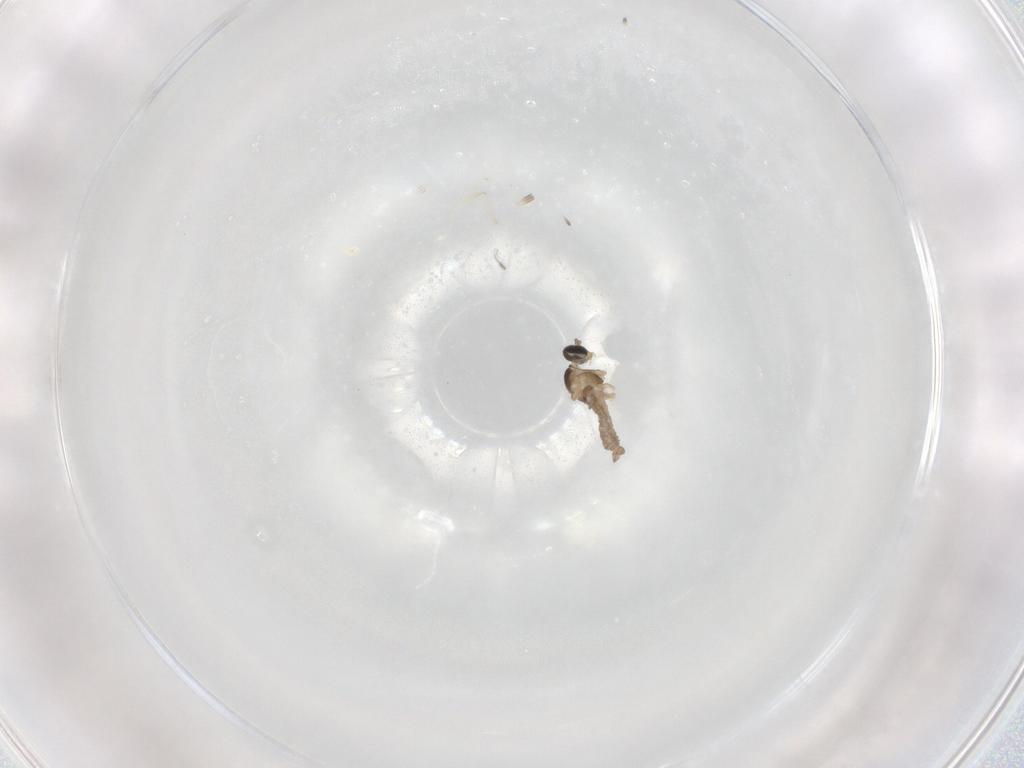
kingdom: Animalia
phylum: Arthropoda
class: Insecta
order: Diptera
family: Cecidomyiidae
